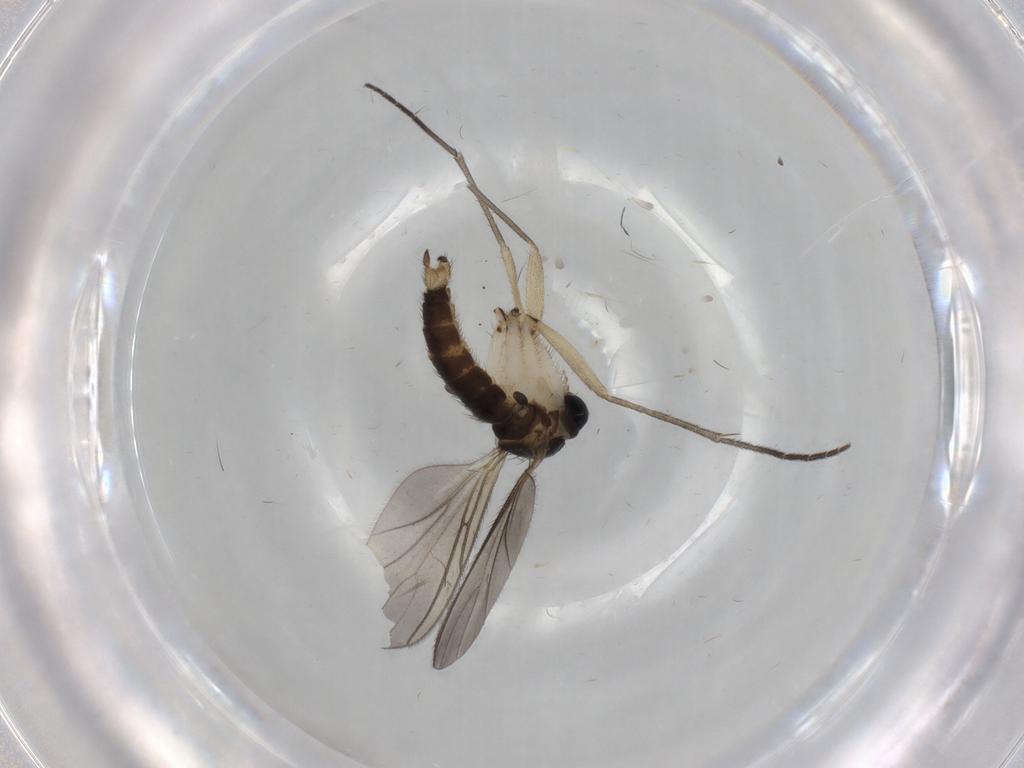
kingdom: Animalia
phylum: Arthropoda
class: Insecta
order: Diptera
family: Sciaridae
